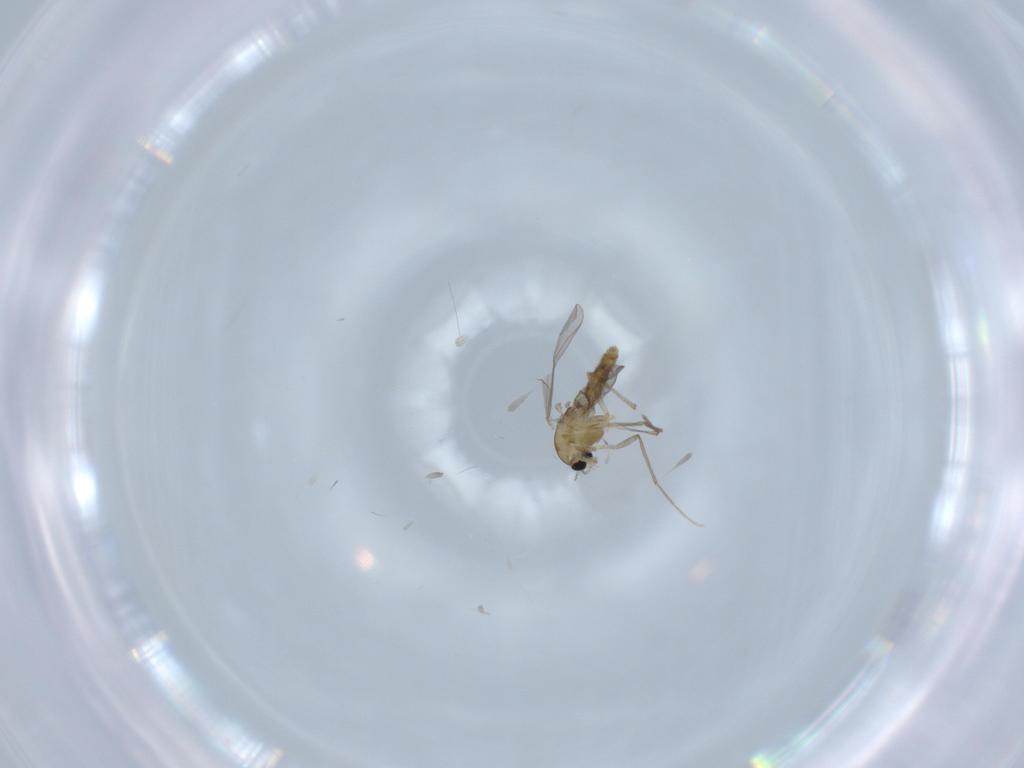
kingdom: Animalia
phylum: Arthropoda
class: Insecta
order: Diptera
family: Chironomidae
